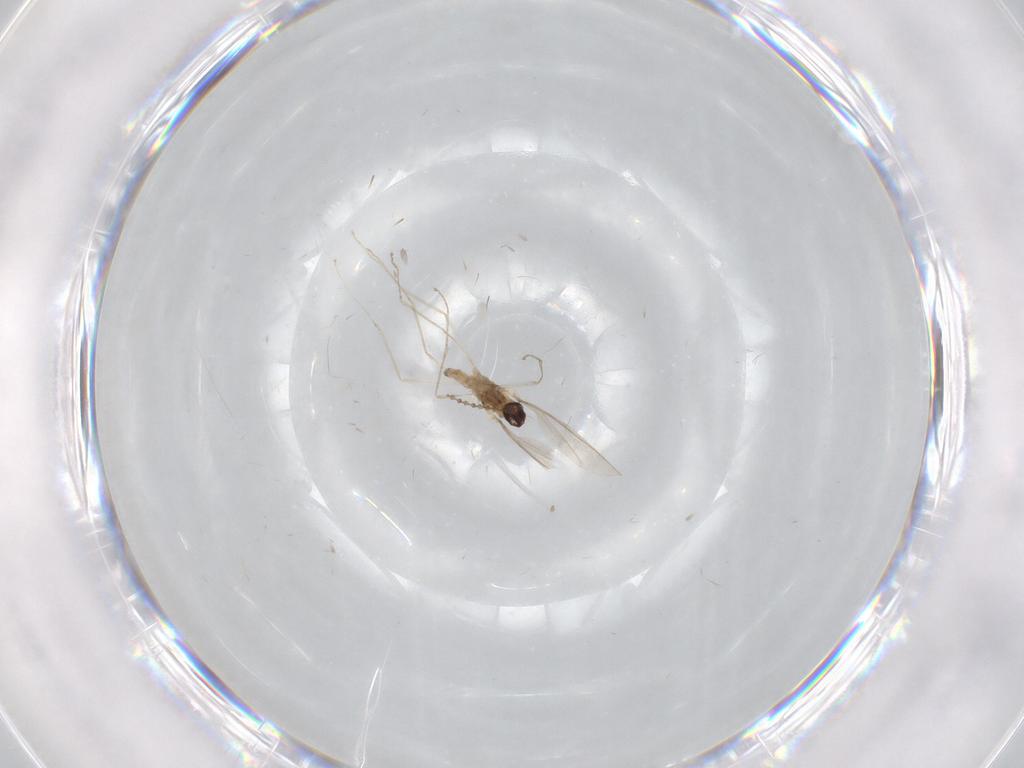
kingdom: Animalia
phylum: Arthropoda
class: Insecta
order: Diptera
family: Cecidomyiidae
